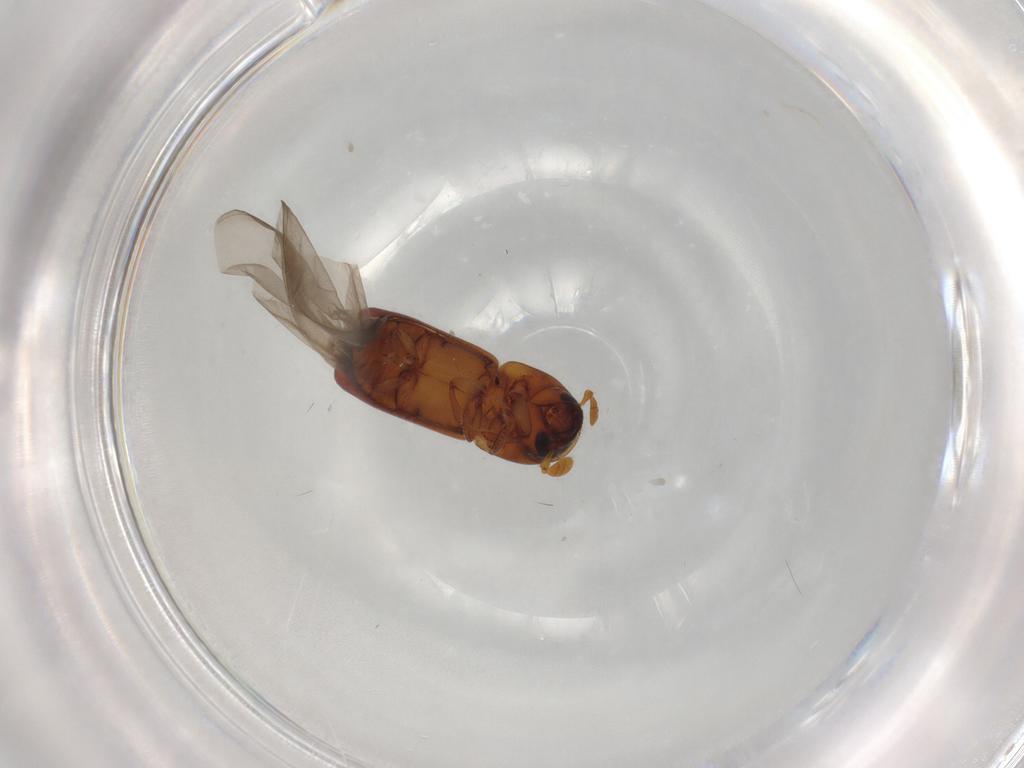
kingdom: Animalia
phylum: Arthropoda
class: Insecta
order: Coleoptera
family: Curculionidae
